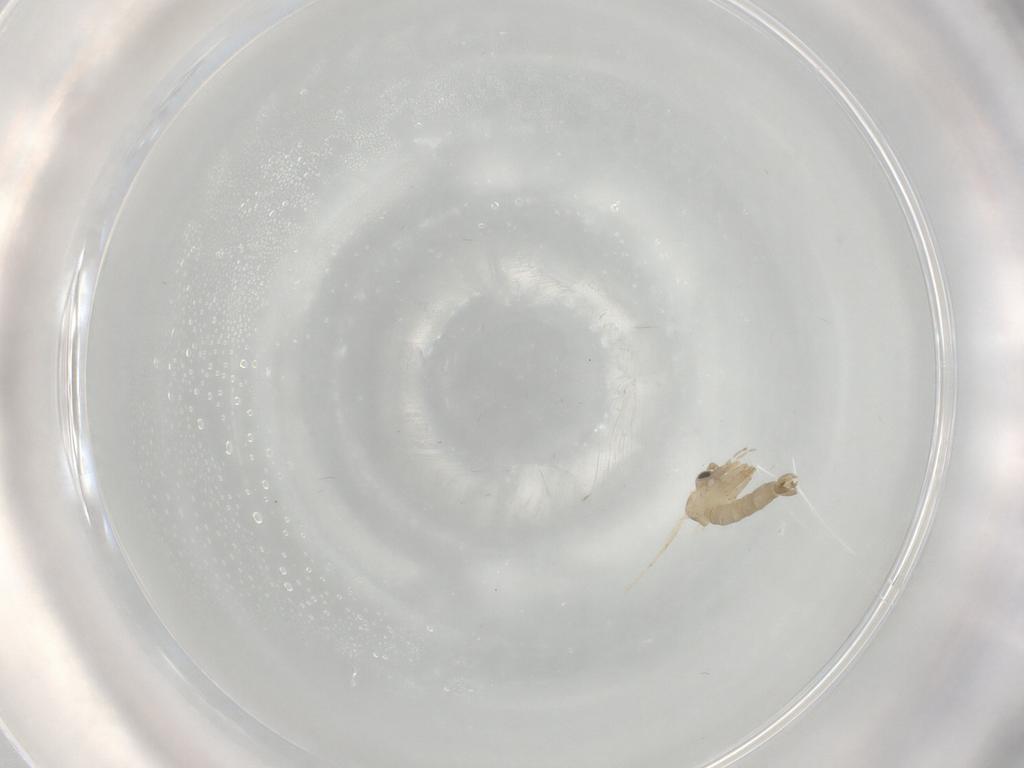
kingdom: Animalia
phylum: Arthropoda
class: Insecta
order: Diptera
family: Psychodidae
